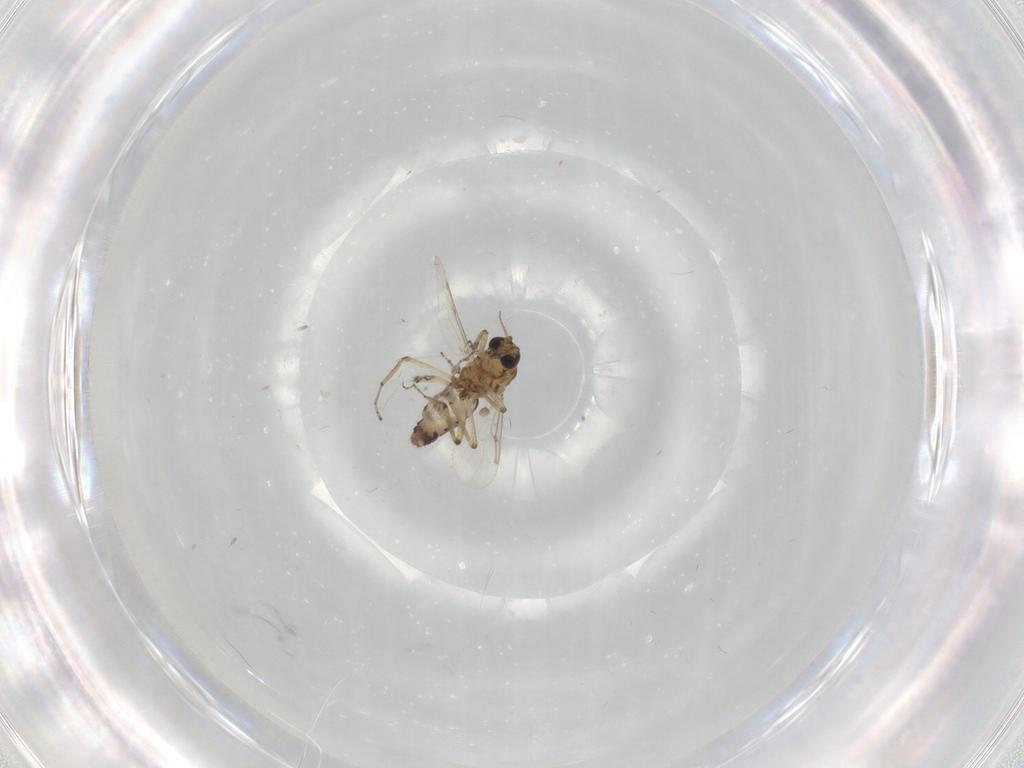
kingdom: Animalia
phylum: Arthropoda
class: Insecta
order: Diptera
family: Ceratopogonidae
